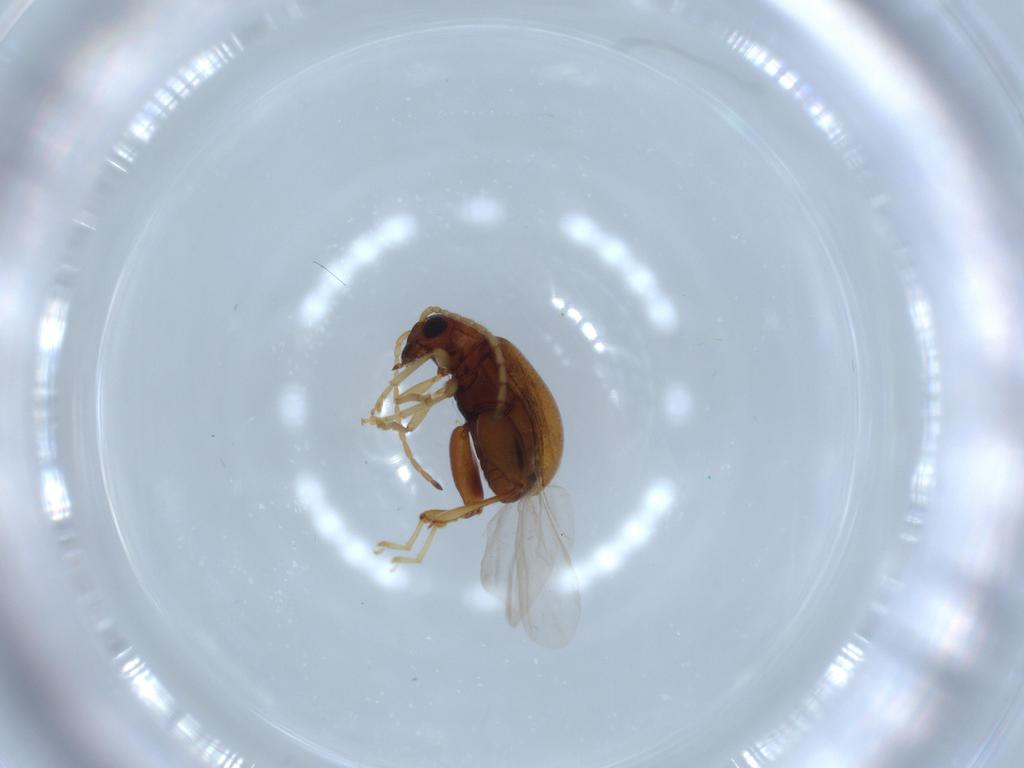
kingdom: Animalia
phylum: Arthropoda
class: Insecta
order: Coleoptera
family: Chrysomelidae
